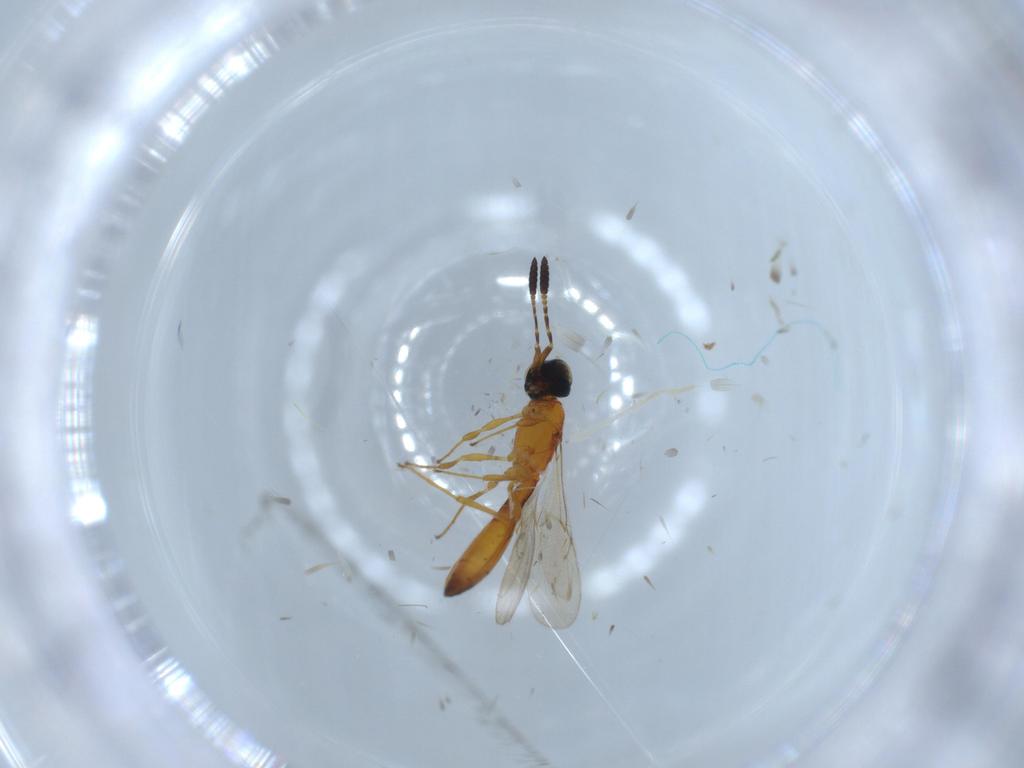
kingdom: Animalia
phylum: Arthropoda
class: Insecta
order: Hymenoptera
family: Scelionidae
